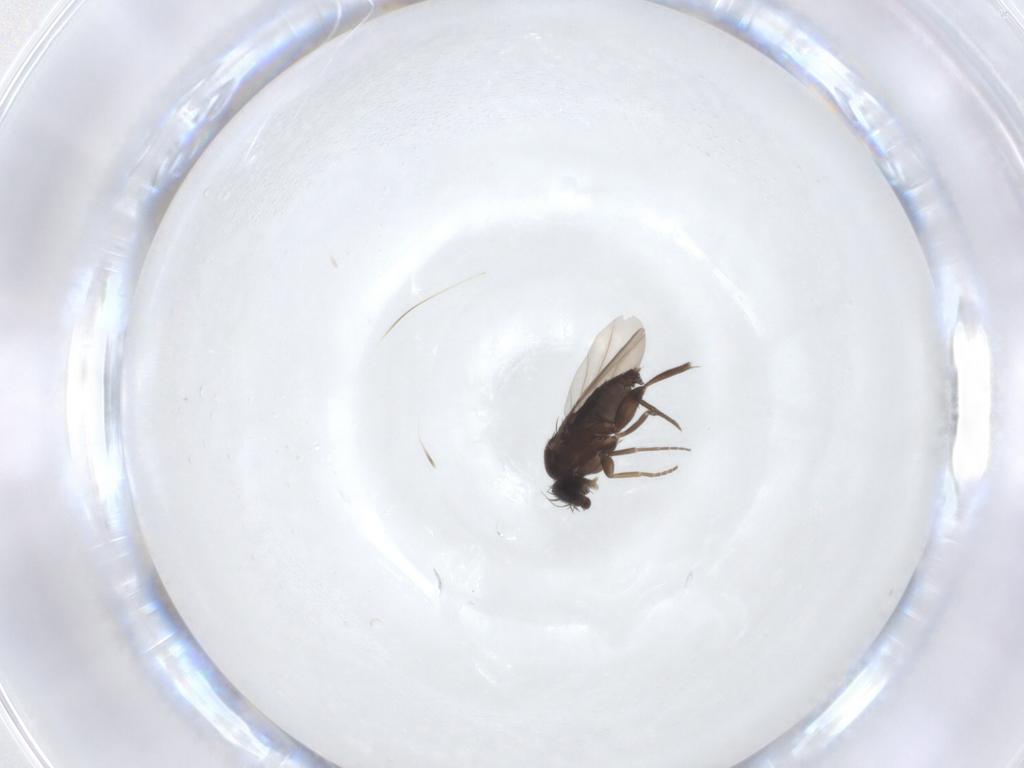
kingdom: Animalia
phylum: Arthropoda
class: Insecta
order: Diptera
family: Phoridae
